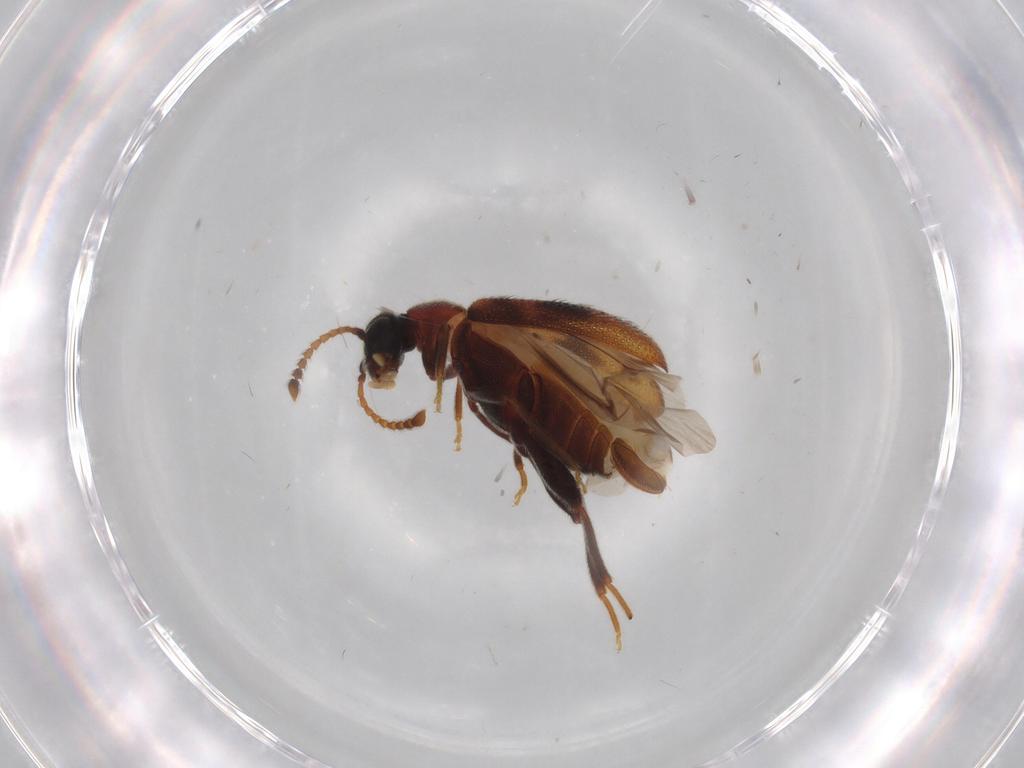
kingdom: Animalia
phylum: Arthropoda
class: Insecta
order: Coleoptera
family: Aderidae
